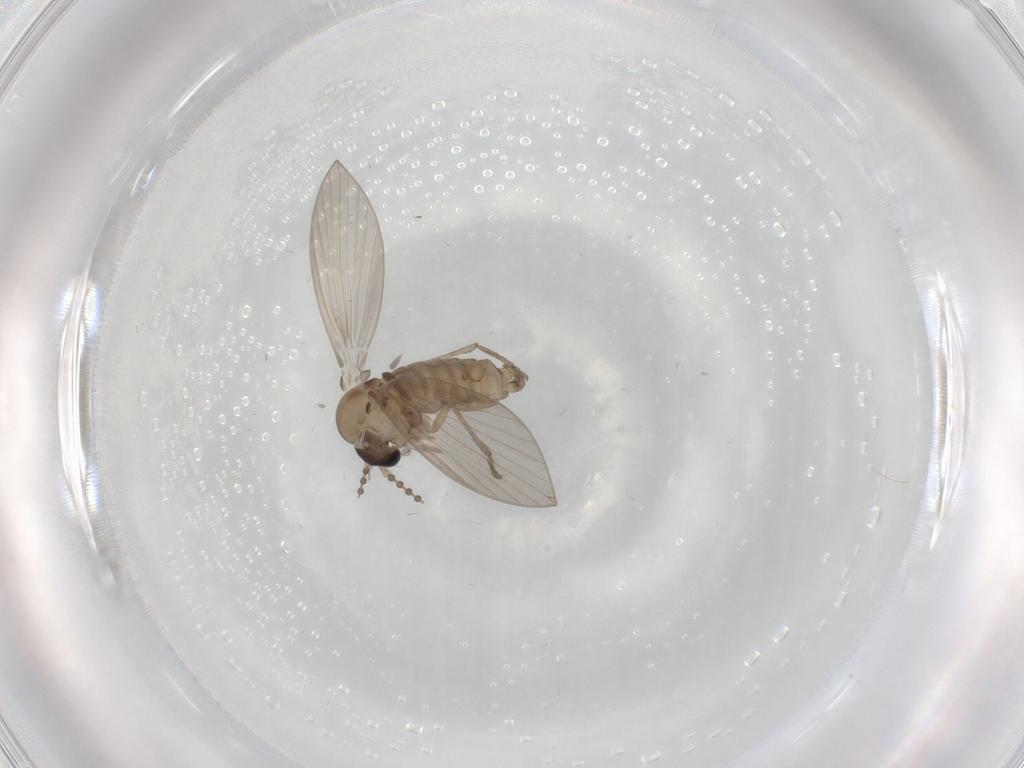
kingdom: Animalia
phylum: Arthropoda
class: Insecta
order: Diptera
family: Psychodidae
